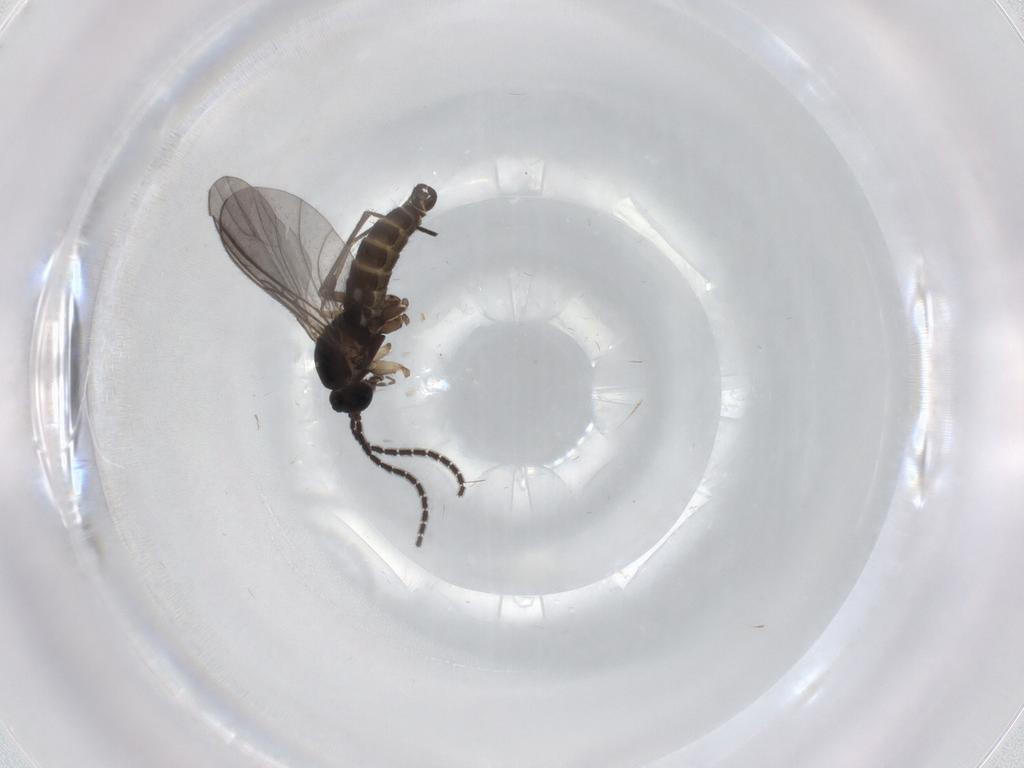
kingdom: Animalia
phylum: Arthropoda
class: Insecta
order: Diptera
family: Sciaridae
